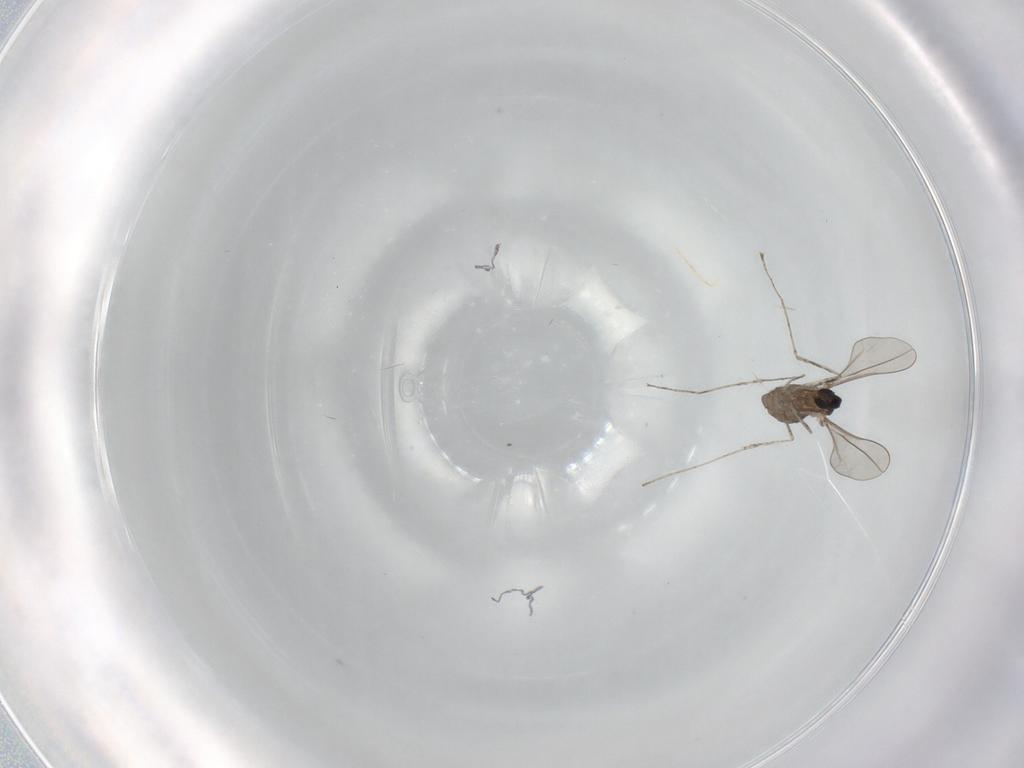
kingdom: Animalia
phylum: Arthropoda
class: Insecta
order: Diptera
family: Cecidomyiidae
